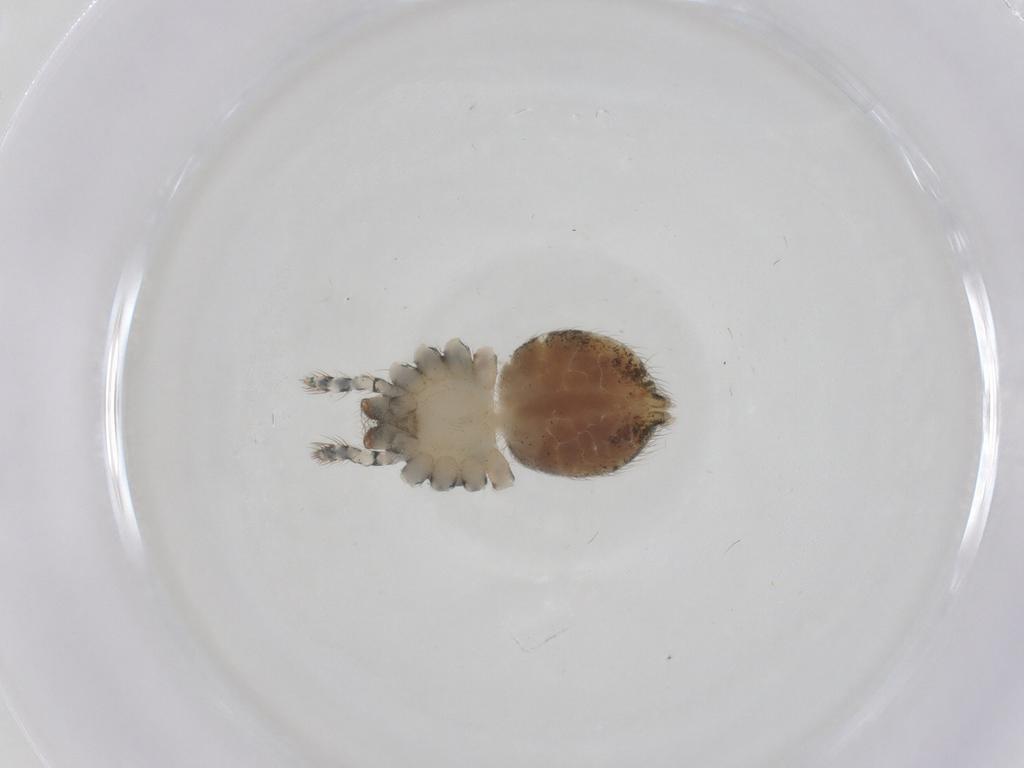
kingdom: Animalia
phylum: Arthropoda
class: Arachnida
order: Araneae
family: Selenopidae
